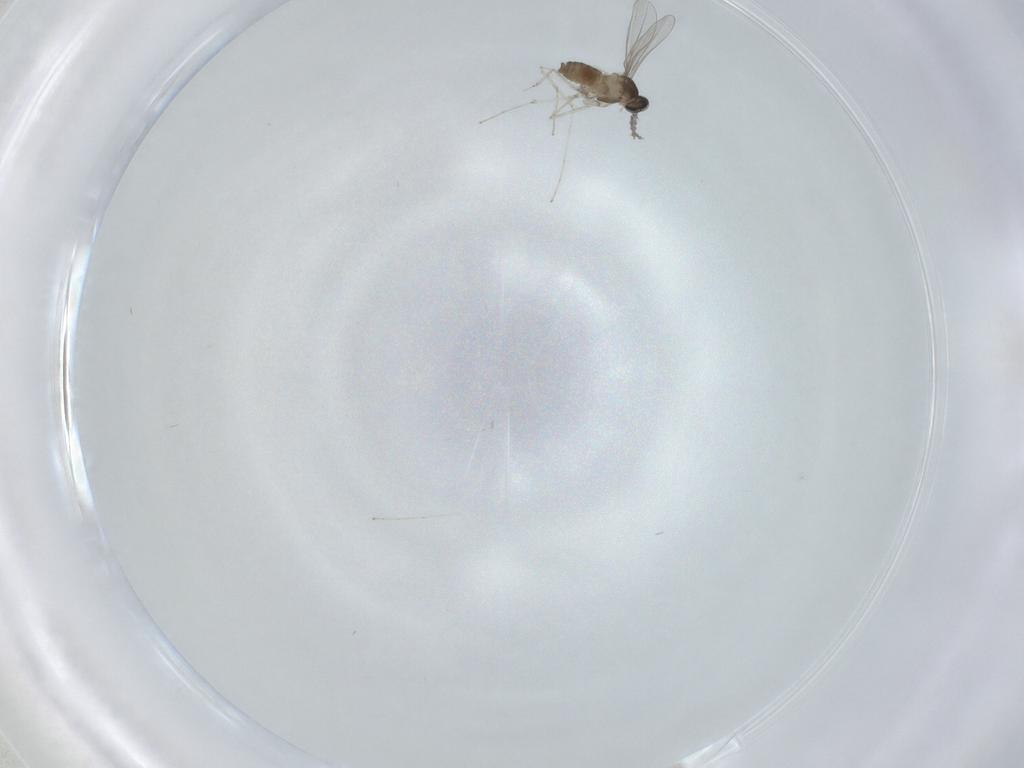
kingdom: Animalia
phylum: Arthropoda
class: Insecta
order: Diptera
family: Cecidomyiidae
